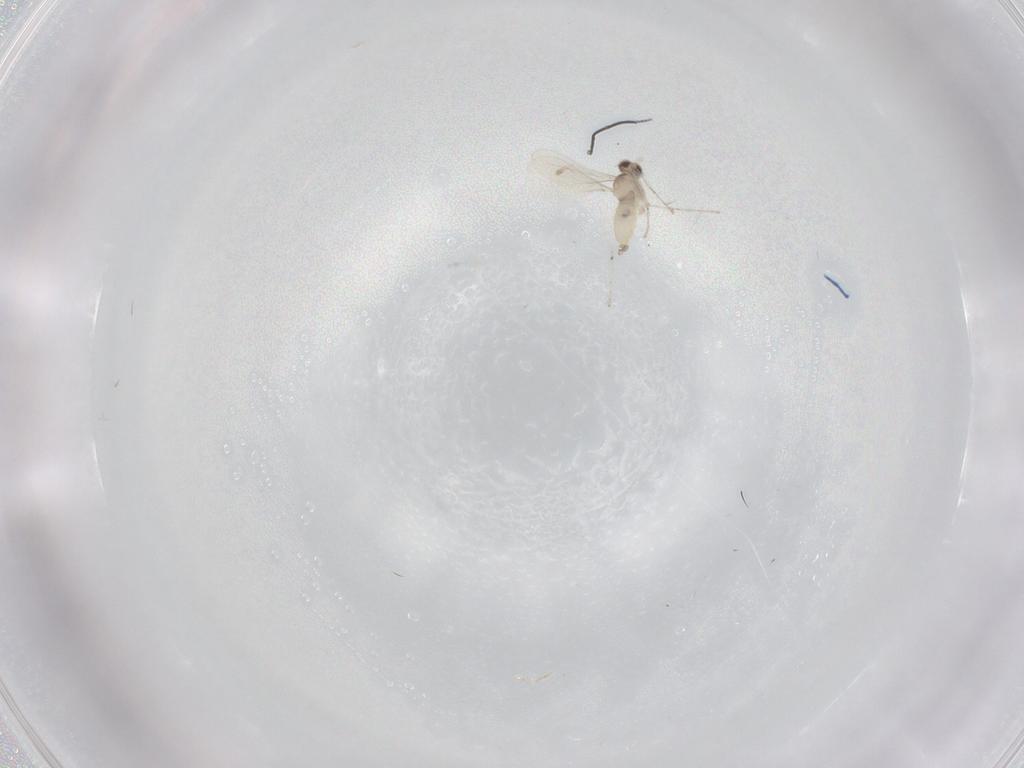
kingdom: Animalia
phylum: Arthropoda
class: Insecta
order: Diptera
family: Cecidomyiidae
